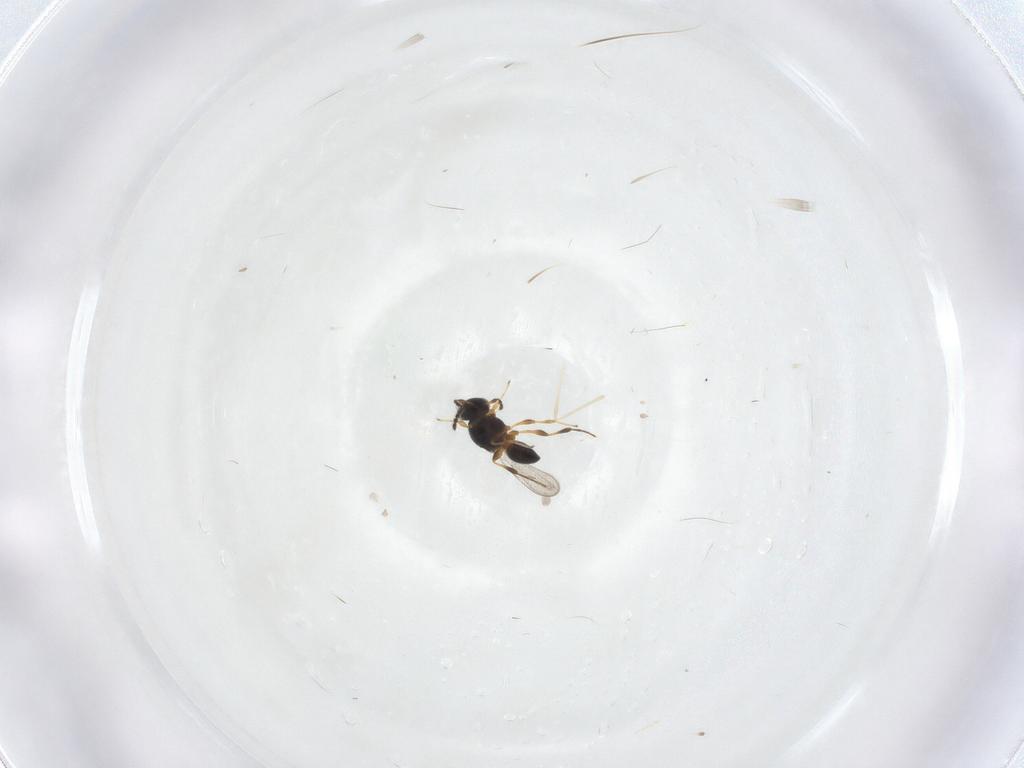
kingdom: Animalia
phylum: Arthropoda
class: Insecta
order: Hymenoptera
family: Platygastridae
